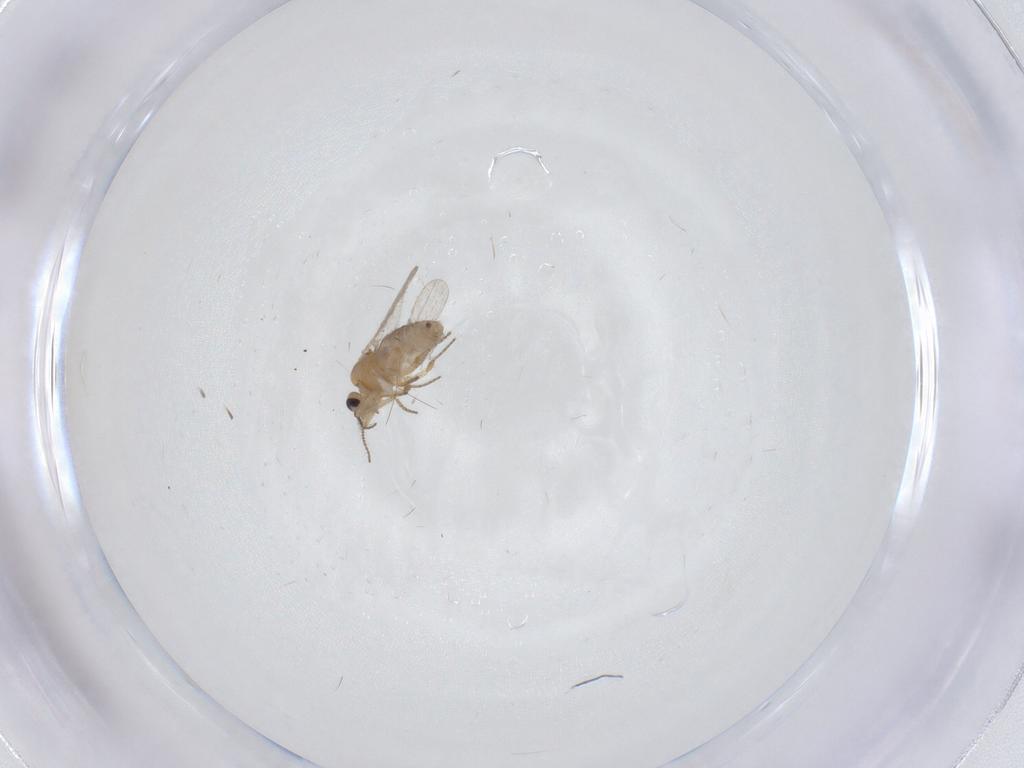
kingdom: Animalia
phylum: Arthropoda
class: Insecta
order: Diptera
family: Ceratopogonidae
